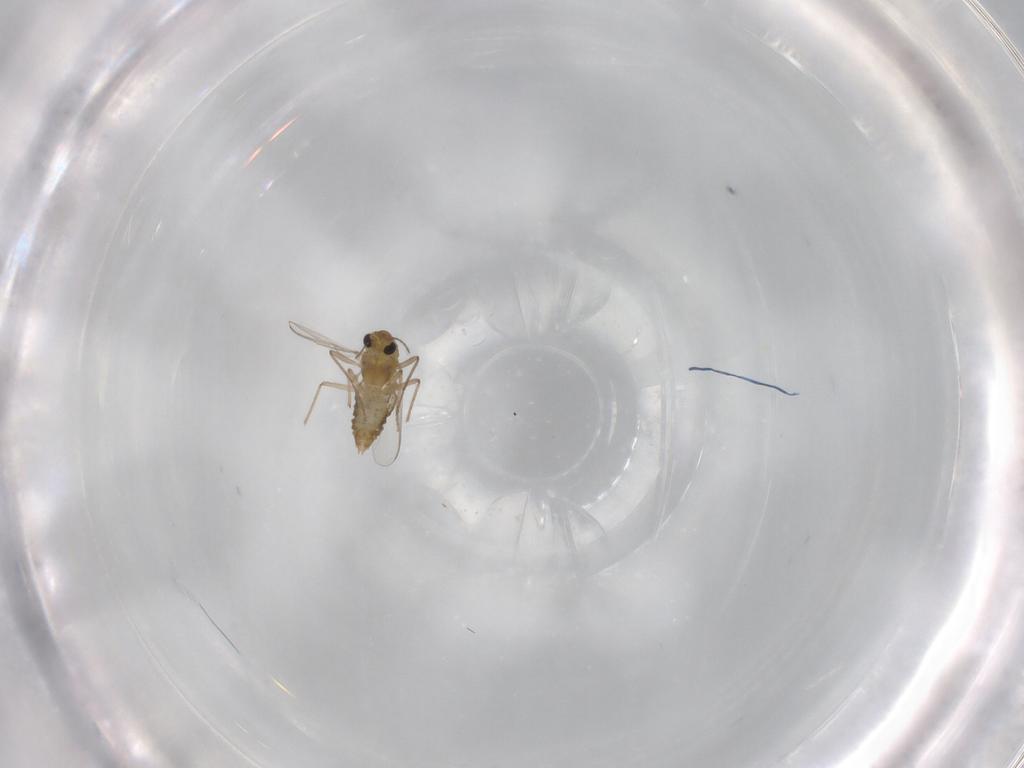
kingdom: Animalia
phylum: Arthropoda
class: Insecta
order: Diptera
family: Chironomidae
